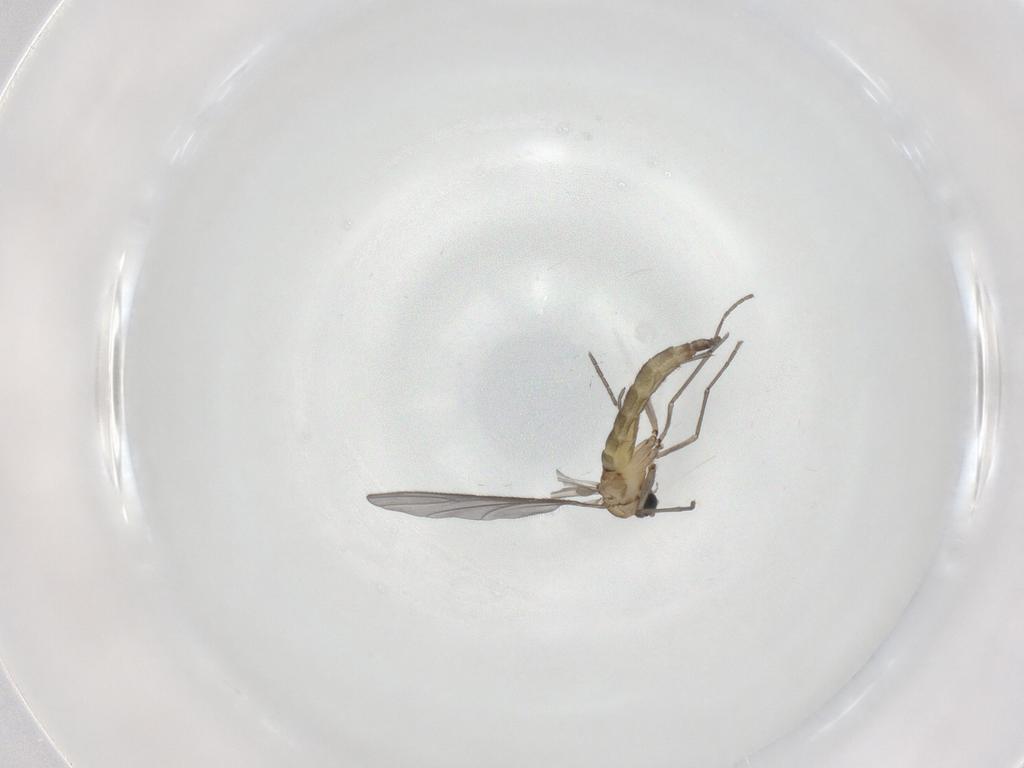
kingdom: Animalia
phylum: Arthropoda
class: Insecta
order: Diptera
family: Sciaridae
